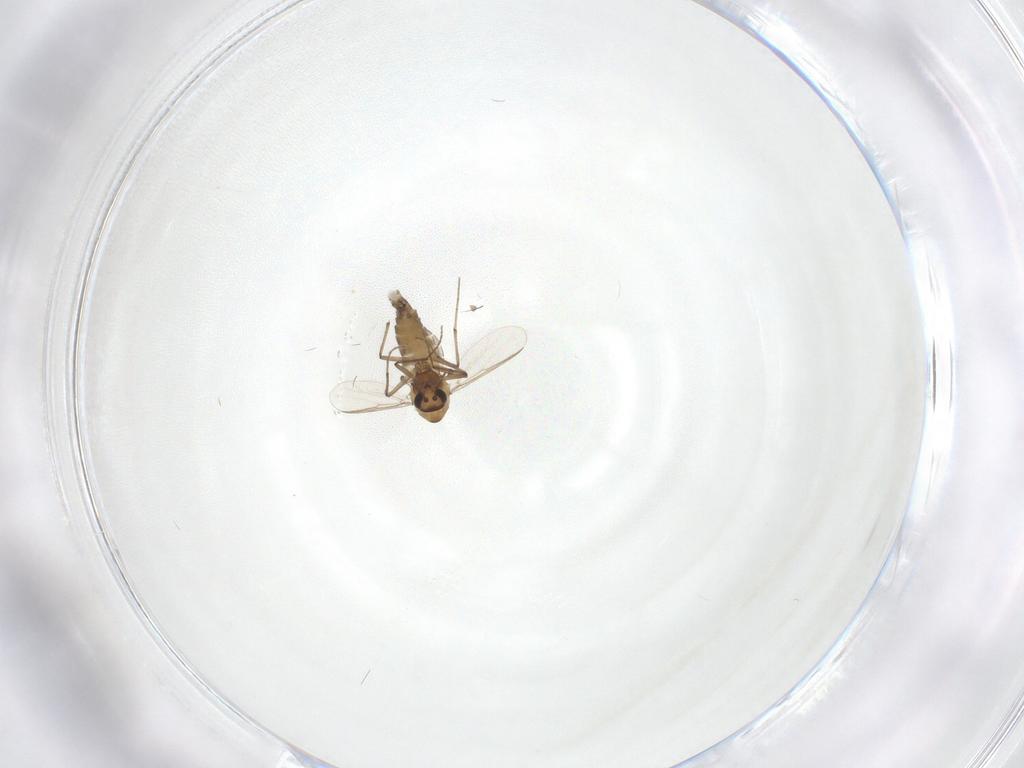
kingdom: Animalia
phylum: Arthropoda
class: Insecta
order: Diptera
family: Chironomidae
